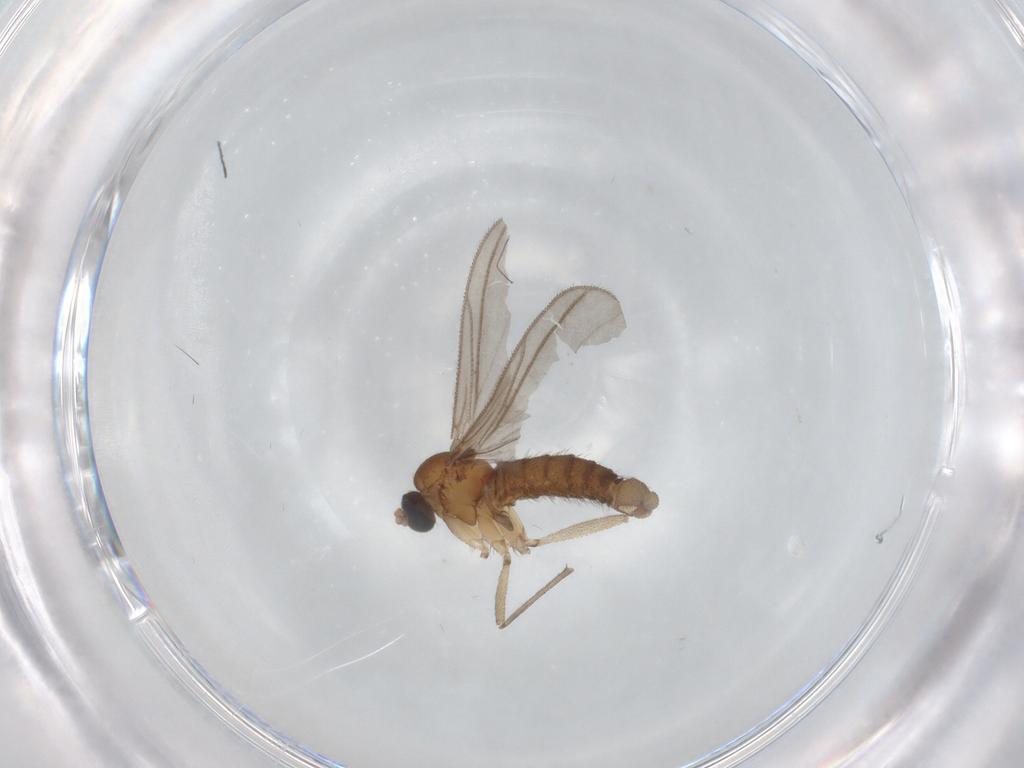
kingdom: Animalia
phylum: Arthropoda
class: Insecta
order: Diptera
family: Sciaridae
